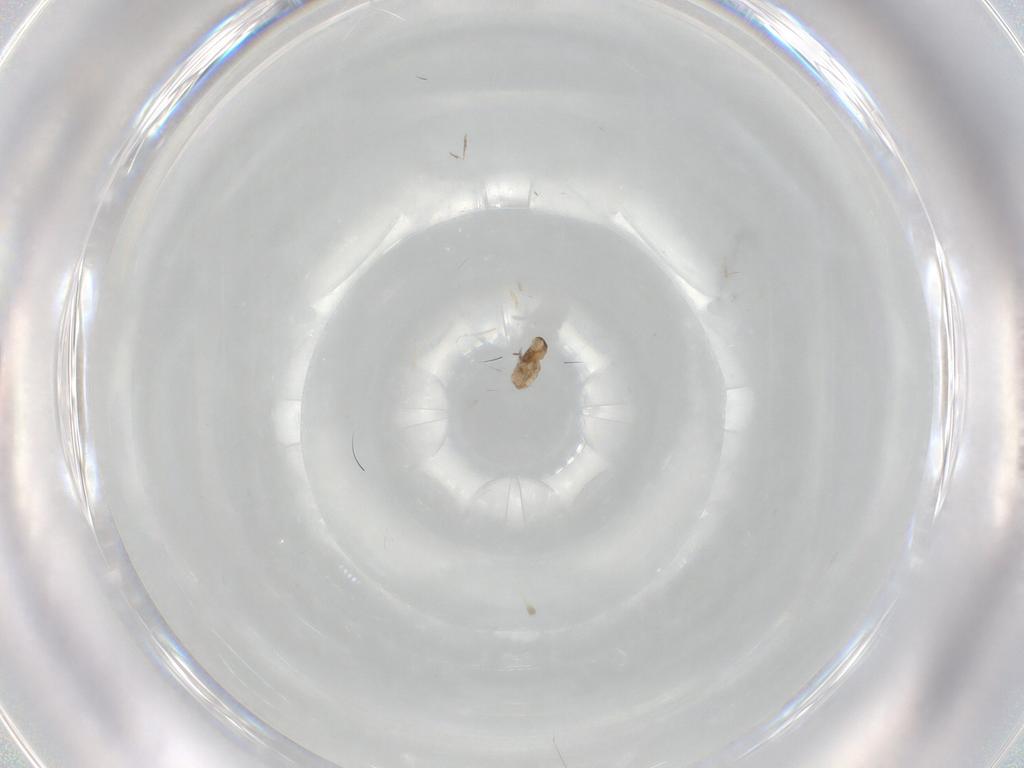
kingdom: Animalia
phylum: Arthropoda
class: Insecta
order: Diptera
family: Cecidomyiidae
